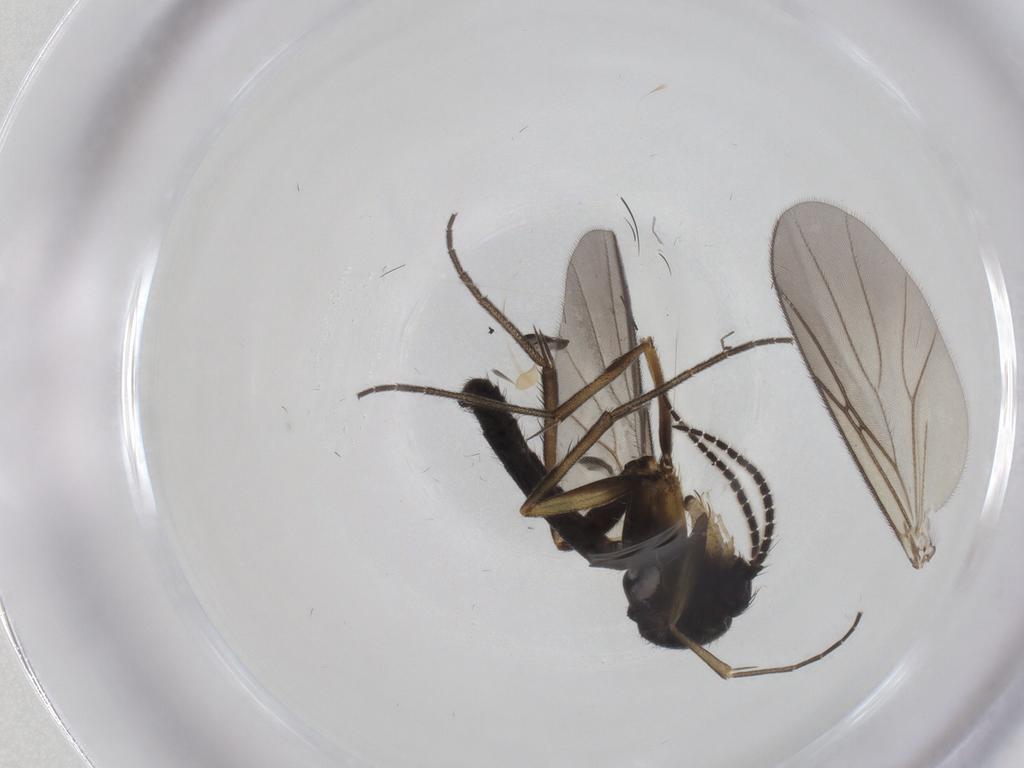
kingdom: Animalia
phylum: Arthropoda
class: Insecta
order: Diptera
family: Mycetophilidae
